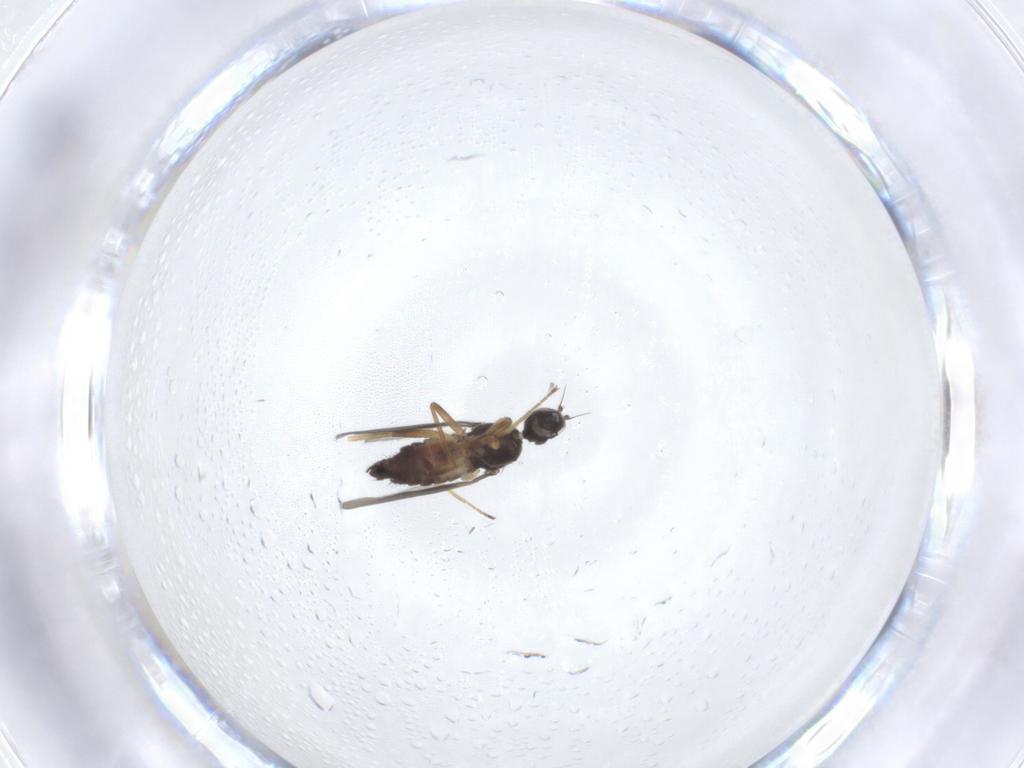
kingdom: Animalia
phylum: Arthropoda
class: Insecta
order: Diptera
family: Hybotidae
